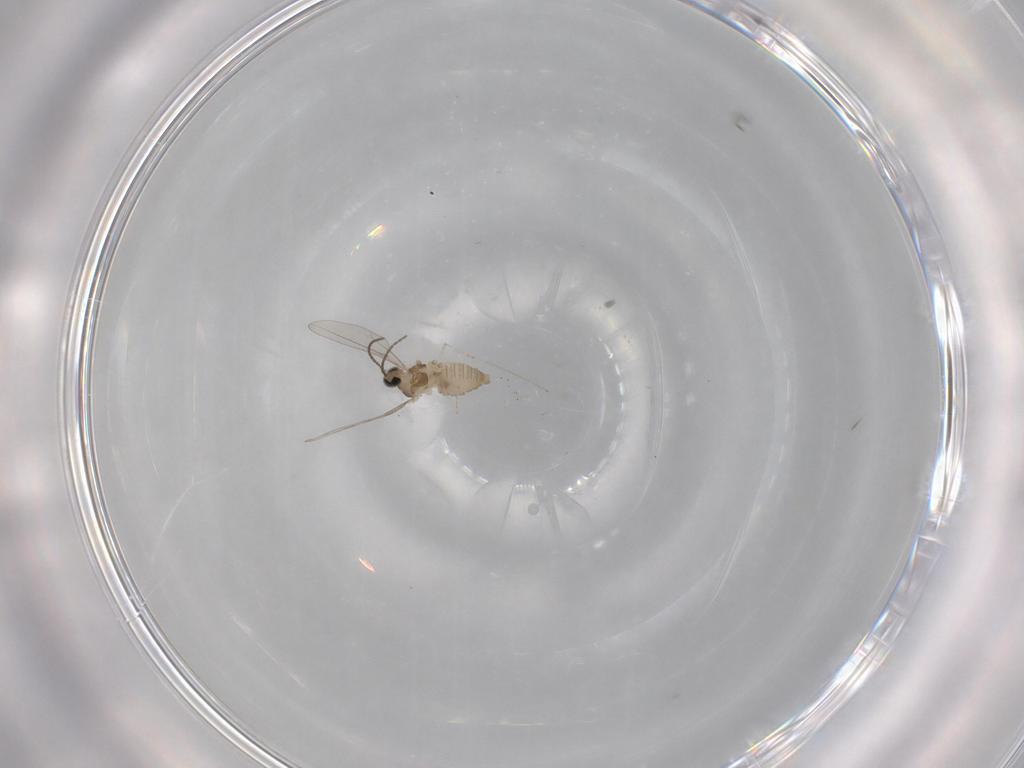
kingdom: Animalia
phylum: Arthropoda
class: Insecta
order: Diptera
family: Cecidomyiidae
